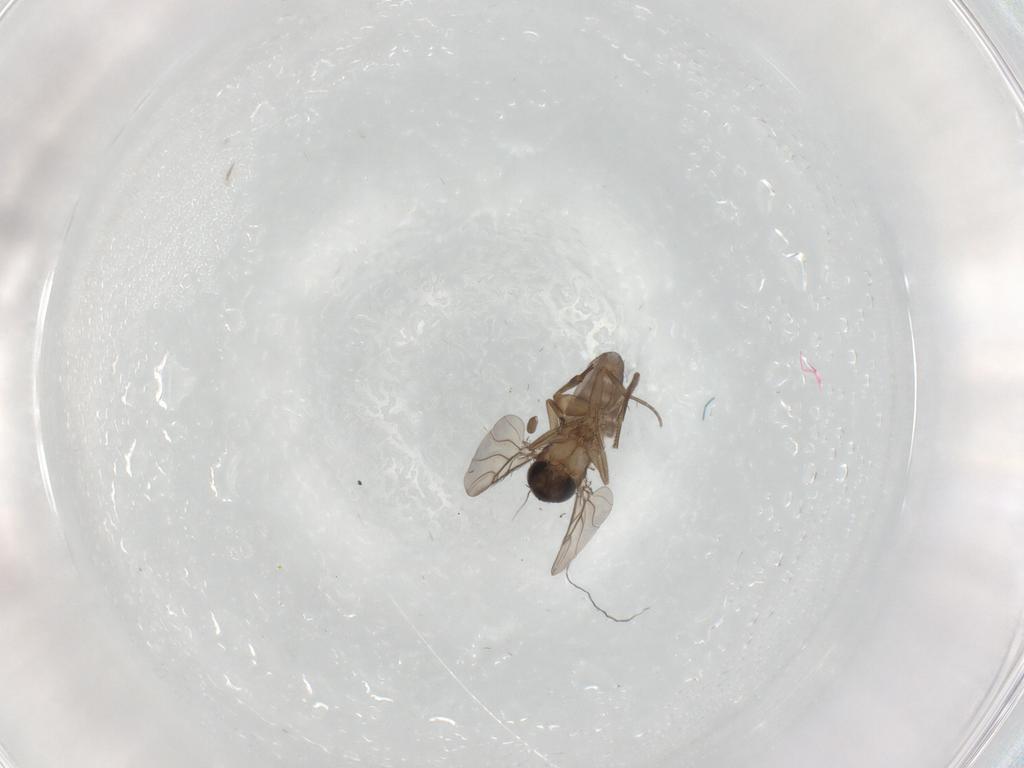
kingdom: Animalia
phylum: Arthropoda
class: Insecta
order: Diptera
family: Phoridae
